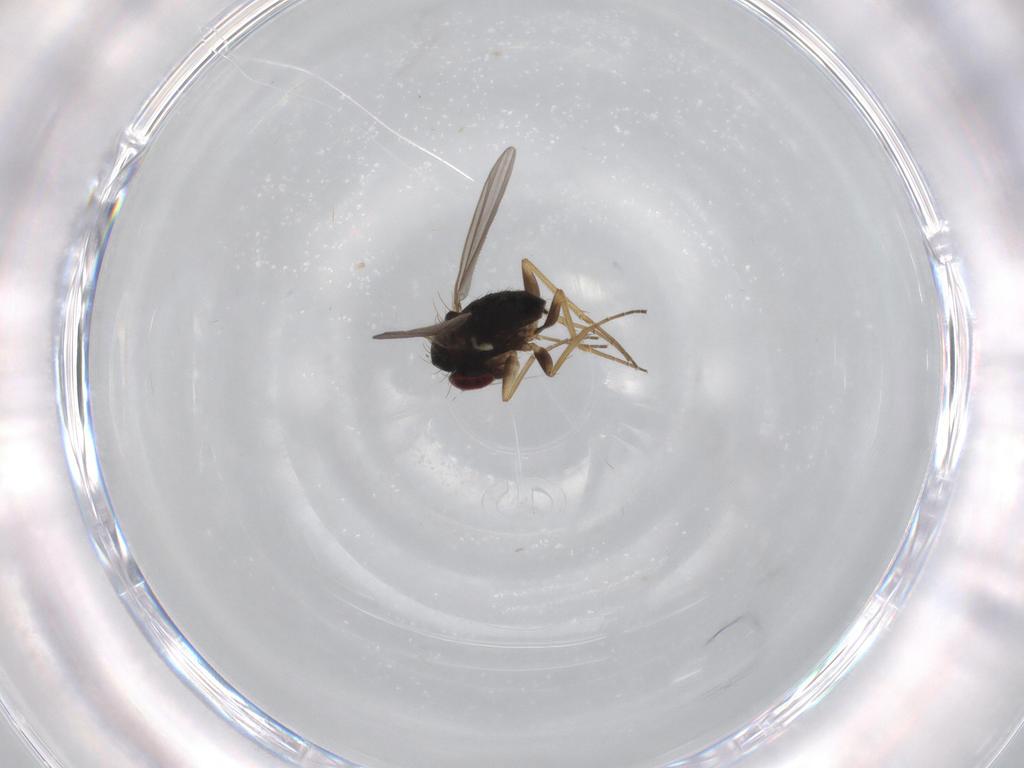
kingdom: Animalia
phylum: Arthropoda
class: Insecta
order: Diptera
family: Dolichopodidae
